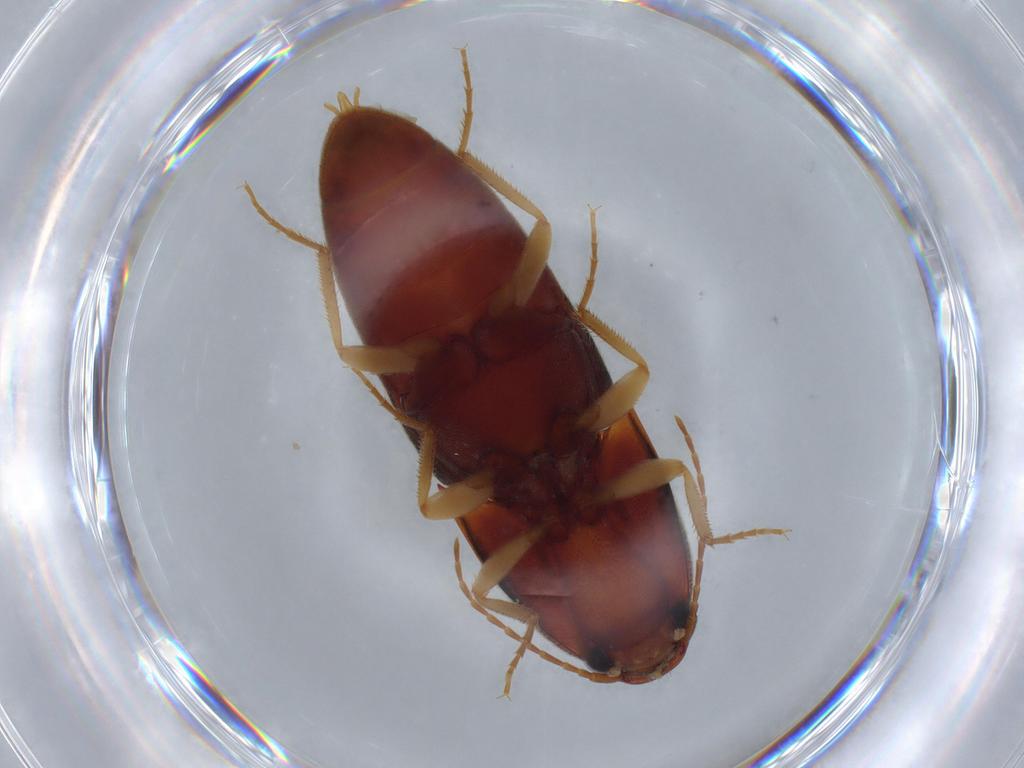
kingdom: Animalia
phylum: Arthropoda
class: Insecta
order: Coleoptera
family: Elateridae
